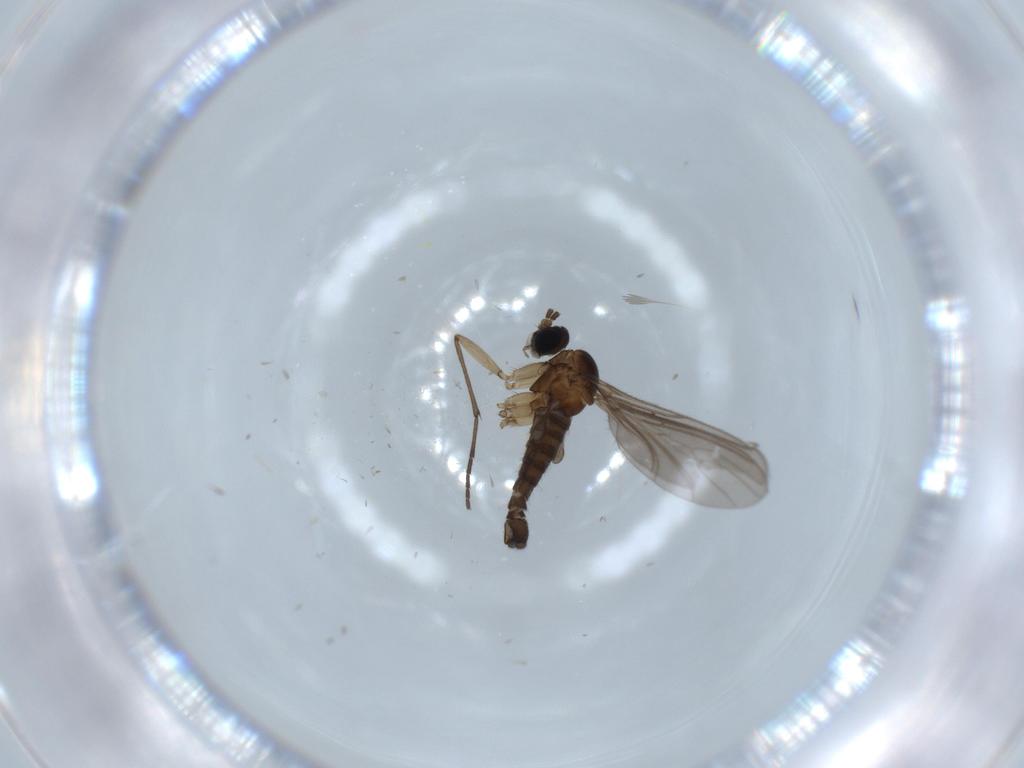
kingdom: Animalia
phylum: Arthropoda
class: Insecta
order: Diptera
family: Sciaridae
